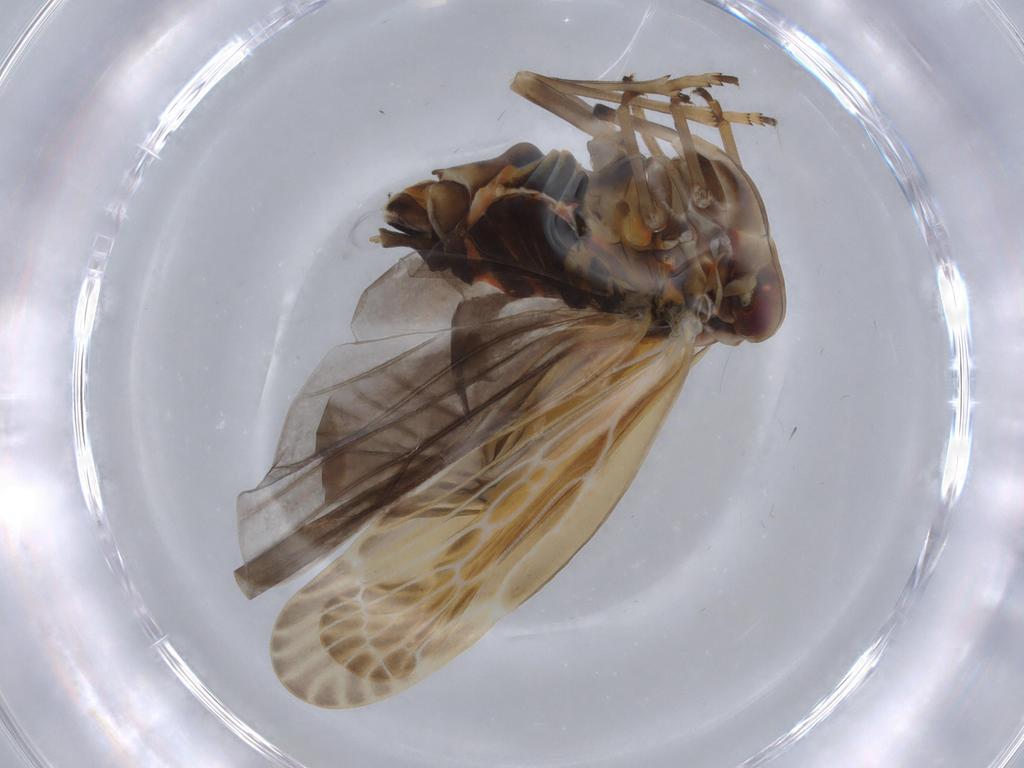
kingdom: Animalia
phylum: Arthropoda
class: Insecta
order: Hemiptera
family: Derbidae
